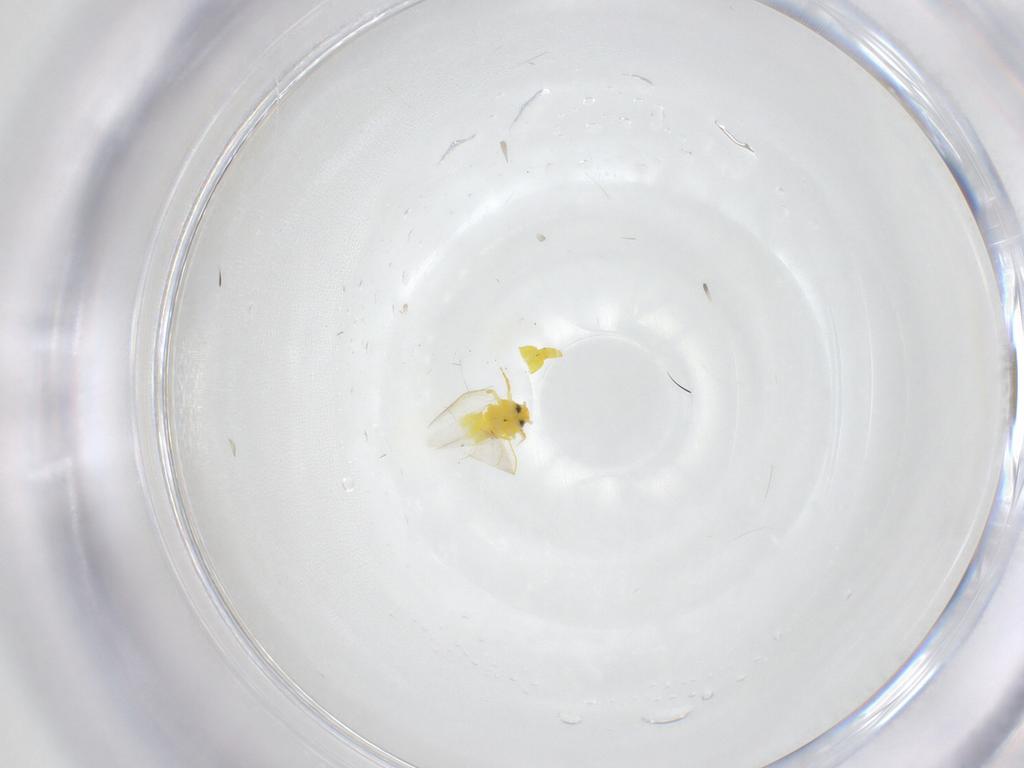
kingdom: Animalia
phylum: Arthropoda
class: Insecta
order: Hemiptera
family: Aleyrodidae
